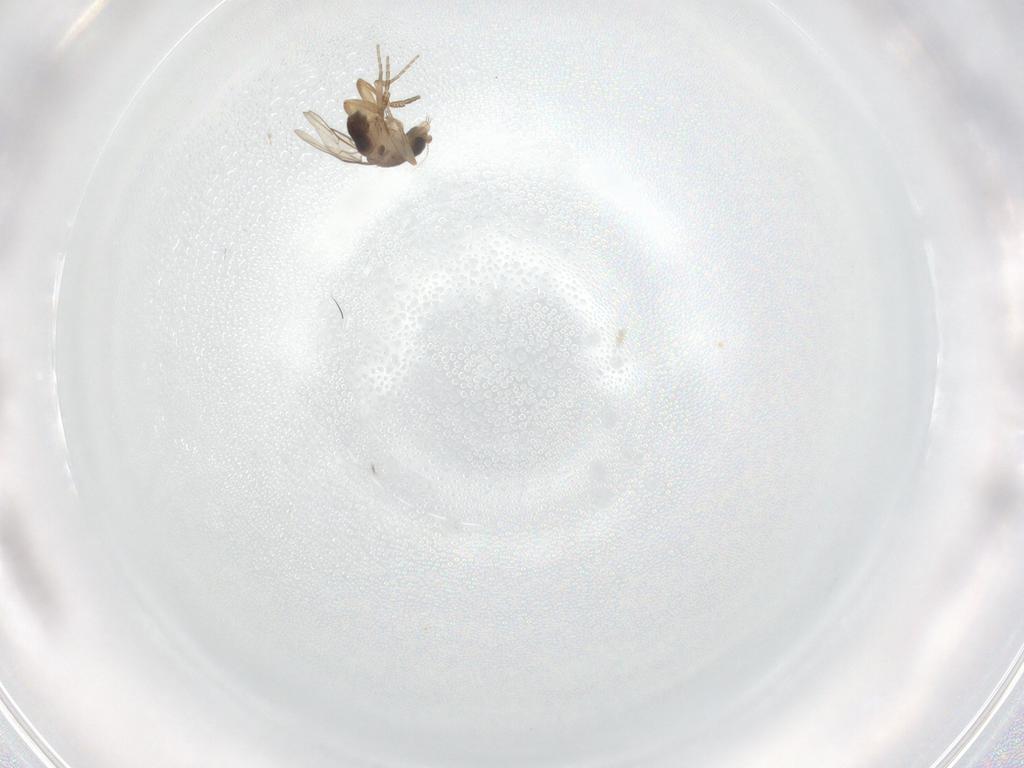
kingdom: Animalia
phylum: Arthropoda
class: Insecta
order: Diptera
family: Phoridae
